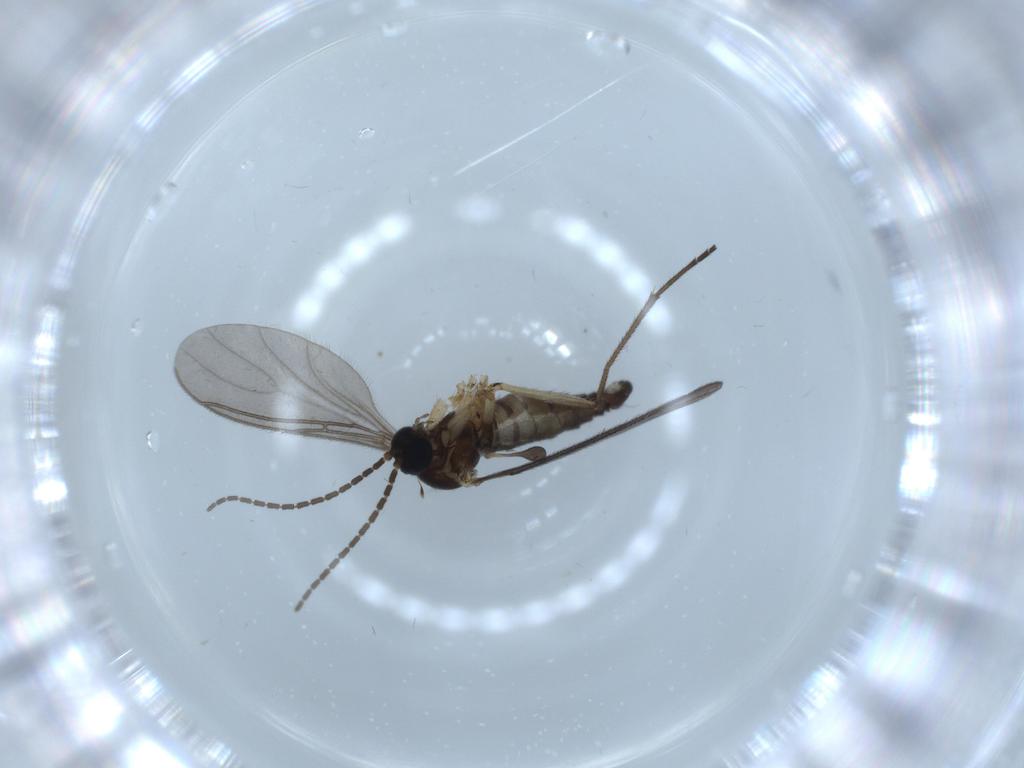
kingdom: Animalia
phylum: Arthropoda
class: Insecta
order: Diptera
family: Sciaridae
